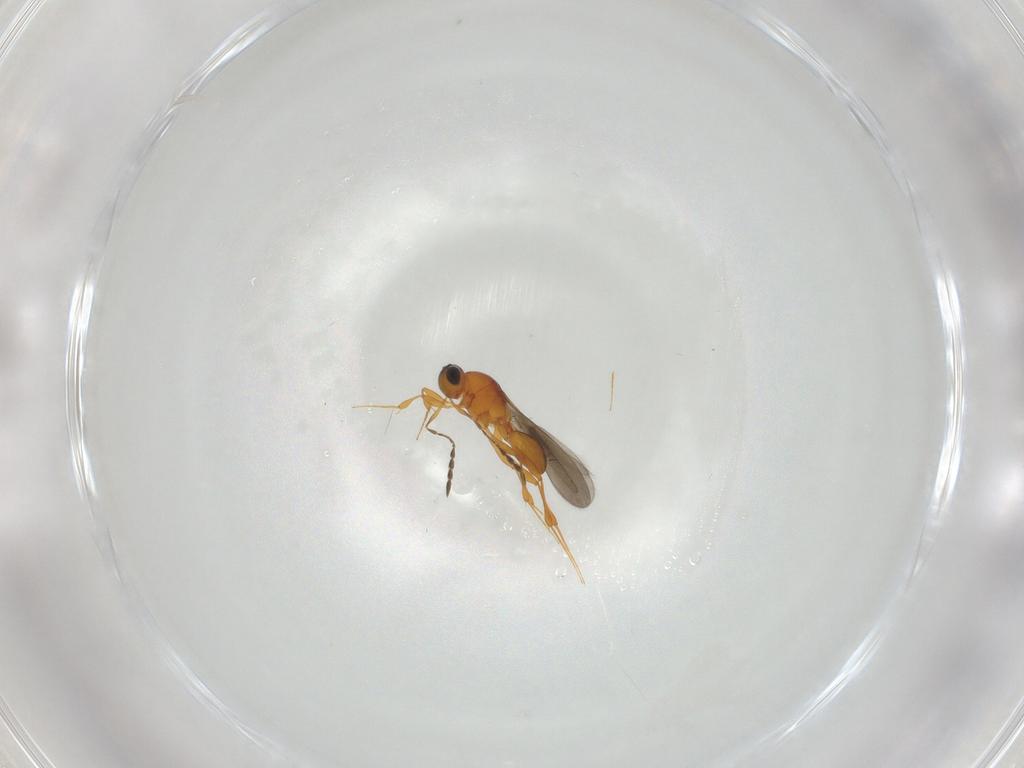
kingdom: Animalia
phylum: Arthropoda
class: Insecta
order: Hymenoptera
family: Platygastridae
